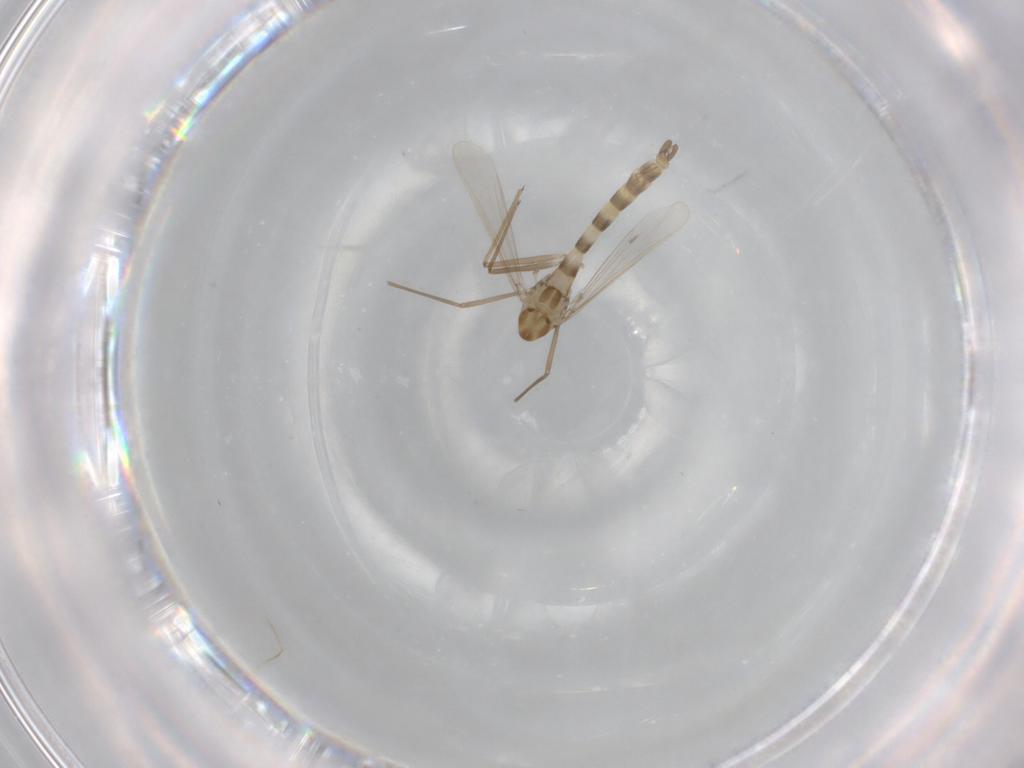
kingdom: Animalia
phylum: Arthropoda
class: Insecta
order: Diptera
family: Chironomidae
